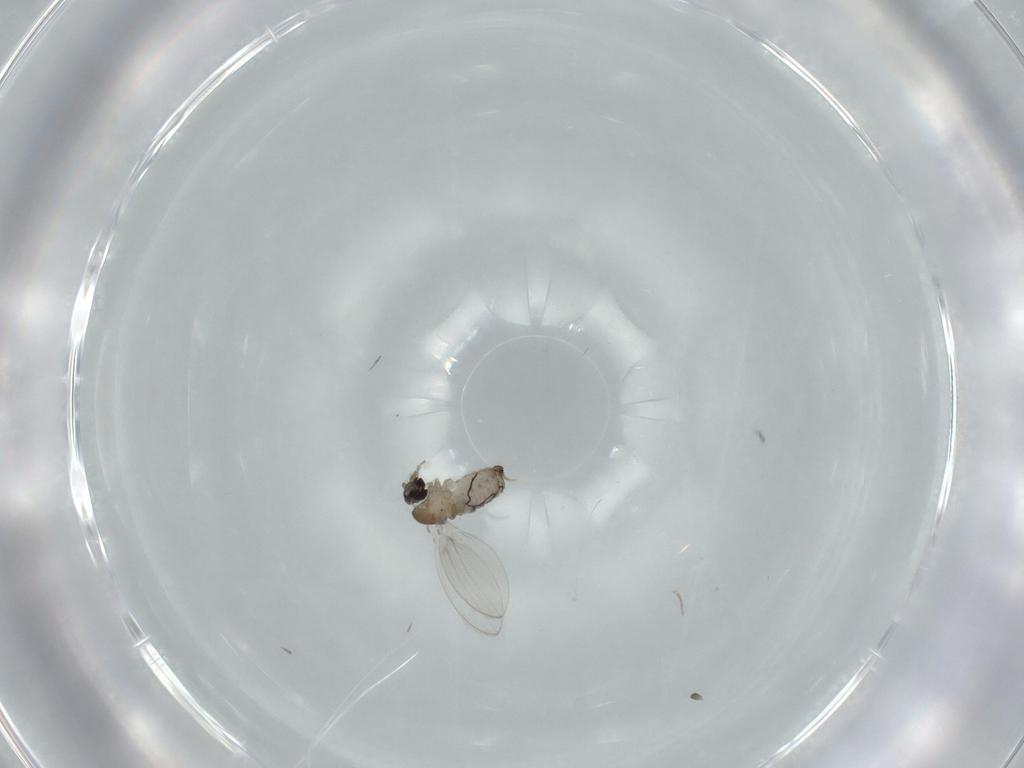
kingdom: Animalia
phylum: Arthropoda
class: Insecta
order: Diptera
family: Psychodidae
